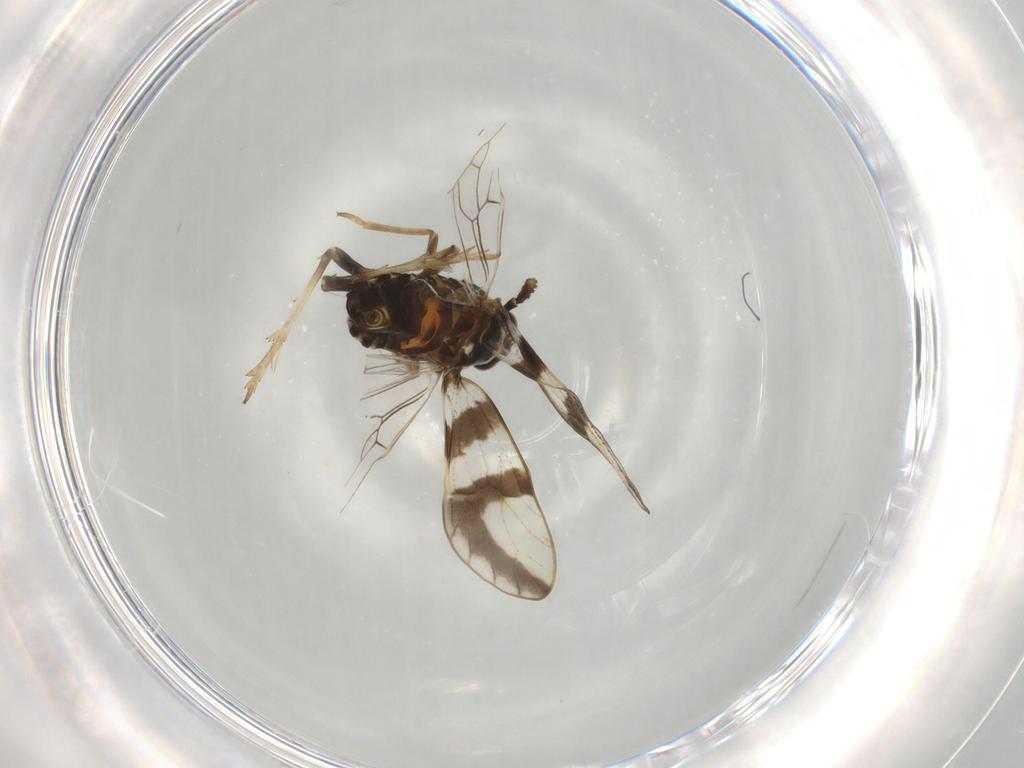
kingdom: Animalia
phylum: Arthropoda
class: Insecta
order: Hemiptera
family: Delphacidae
